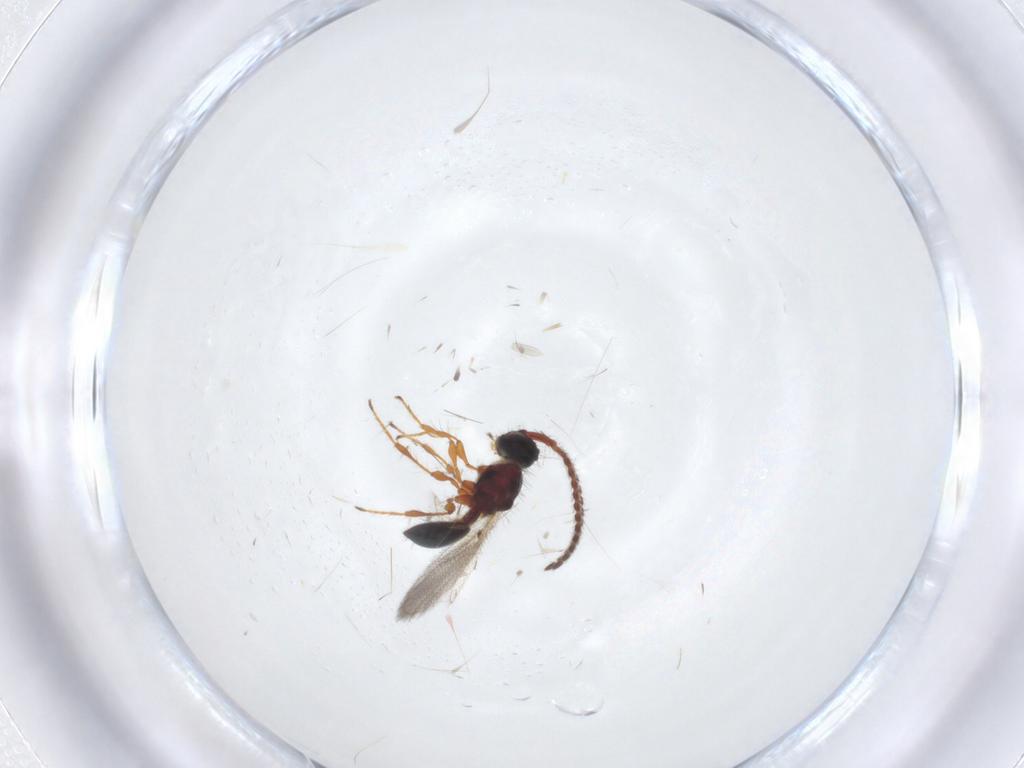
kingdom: Animalia
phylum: Arthropoda
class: Insecta
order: Hymenoptera
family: Diapriidae
